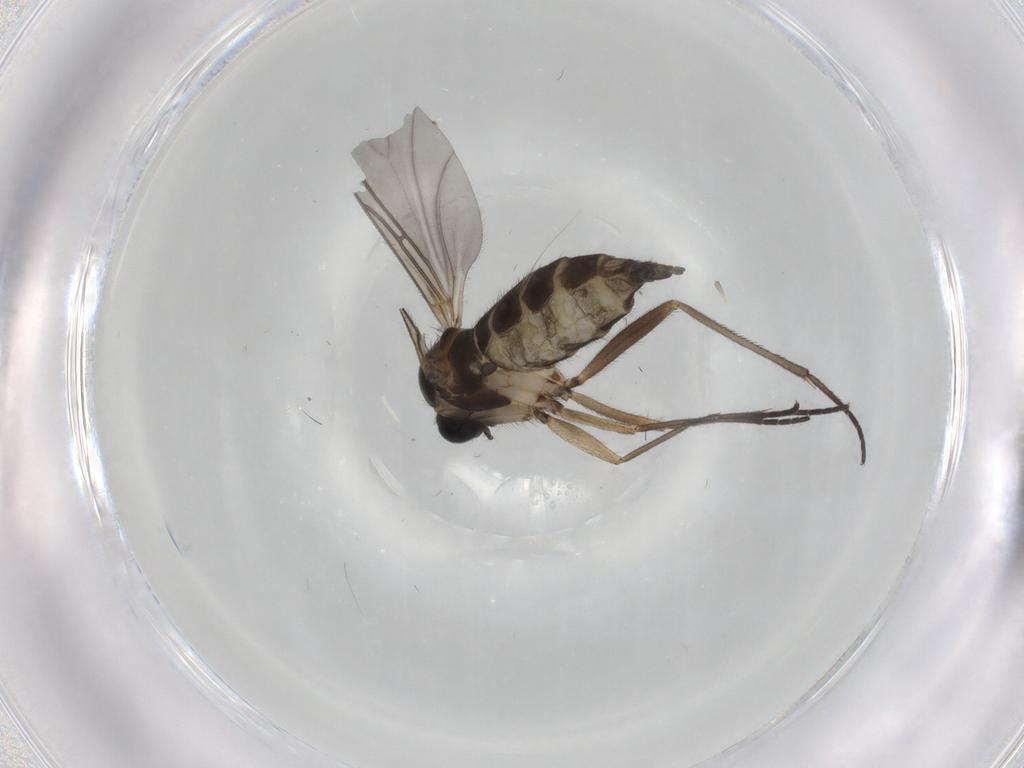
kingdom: Animalia
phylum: Arthropoda
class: Insecta
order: Diptera
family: Sciaridae
